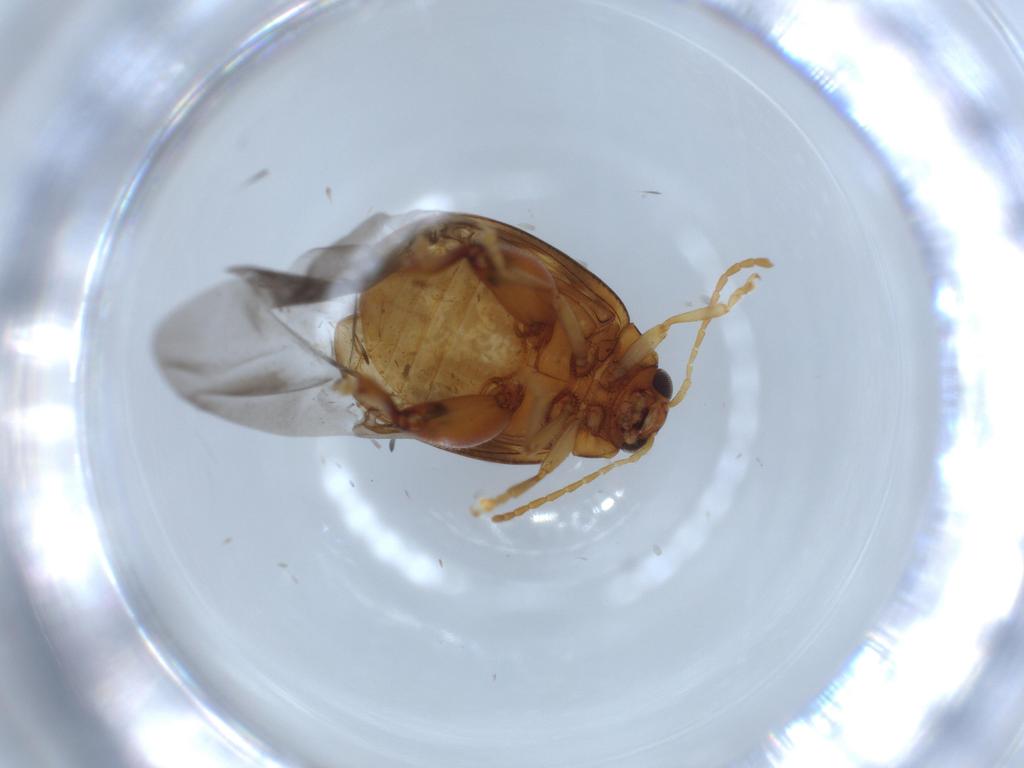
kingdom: Animalia
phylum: Arthropoda
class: Insecta
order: Coleoptera
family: Chrysomelidae
